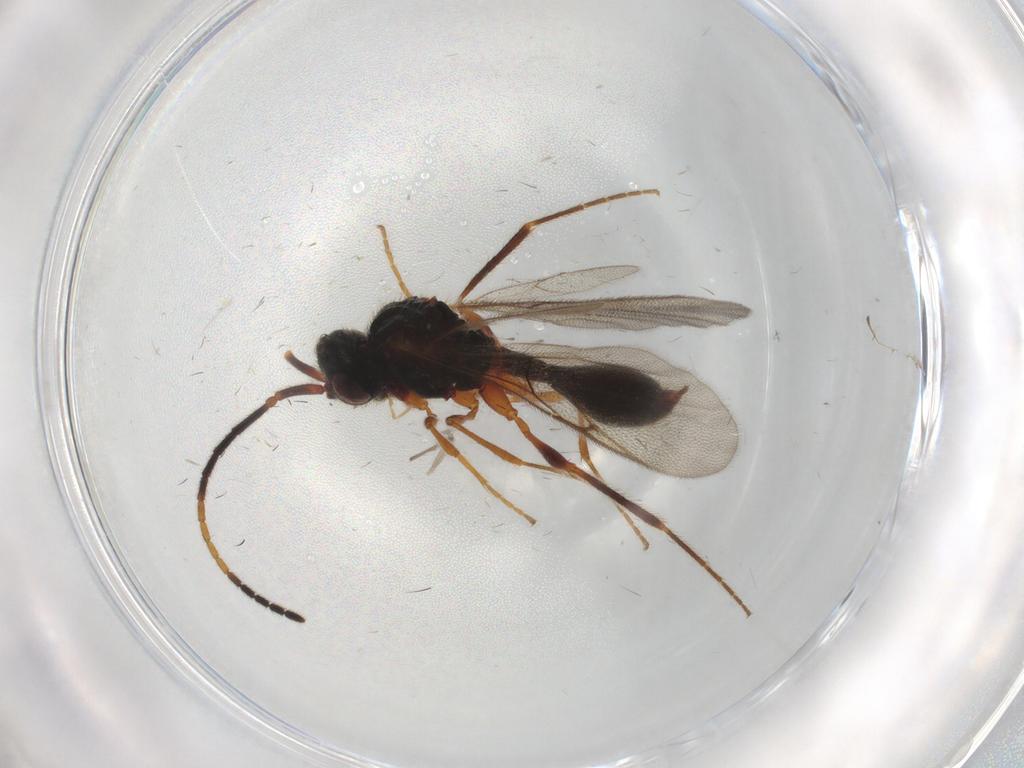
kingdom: Animalia
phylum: Arthropoda
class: Insecta
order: Hymenoptera
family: Diapriidae
